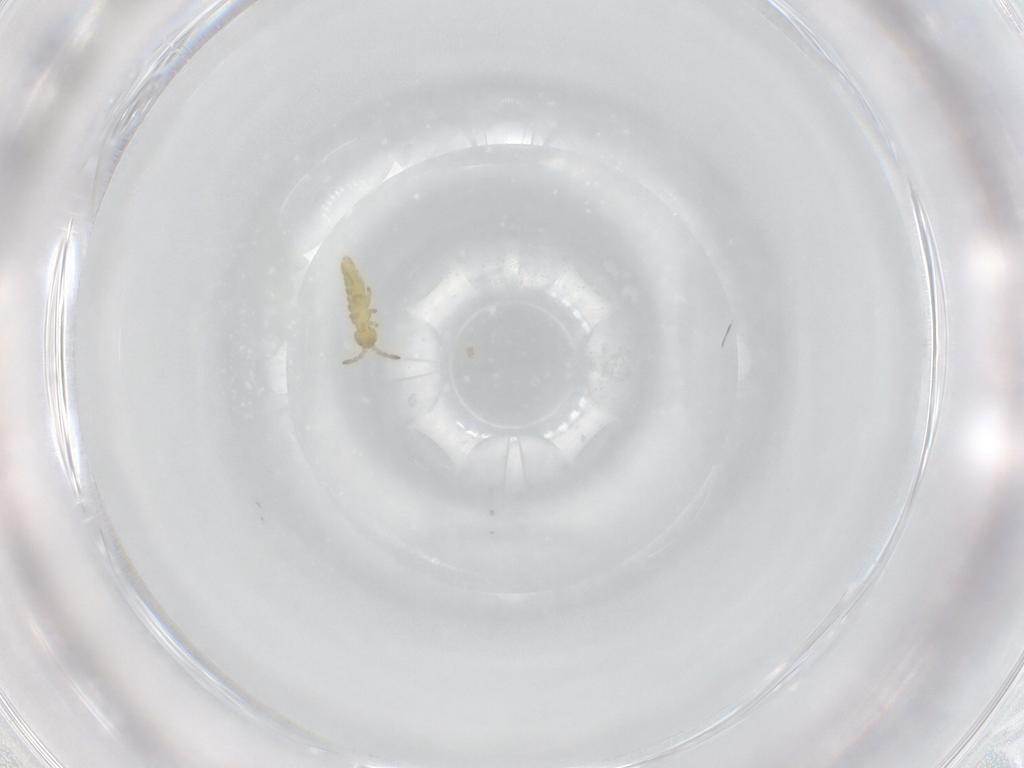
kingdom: Animalia
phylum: Arthropoda
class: Collembola
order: Entomobryomorpha
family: Isotomidae
